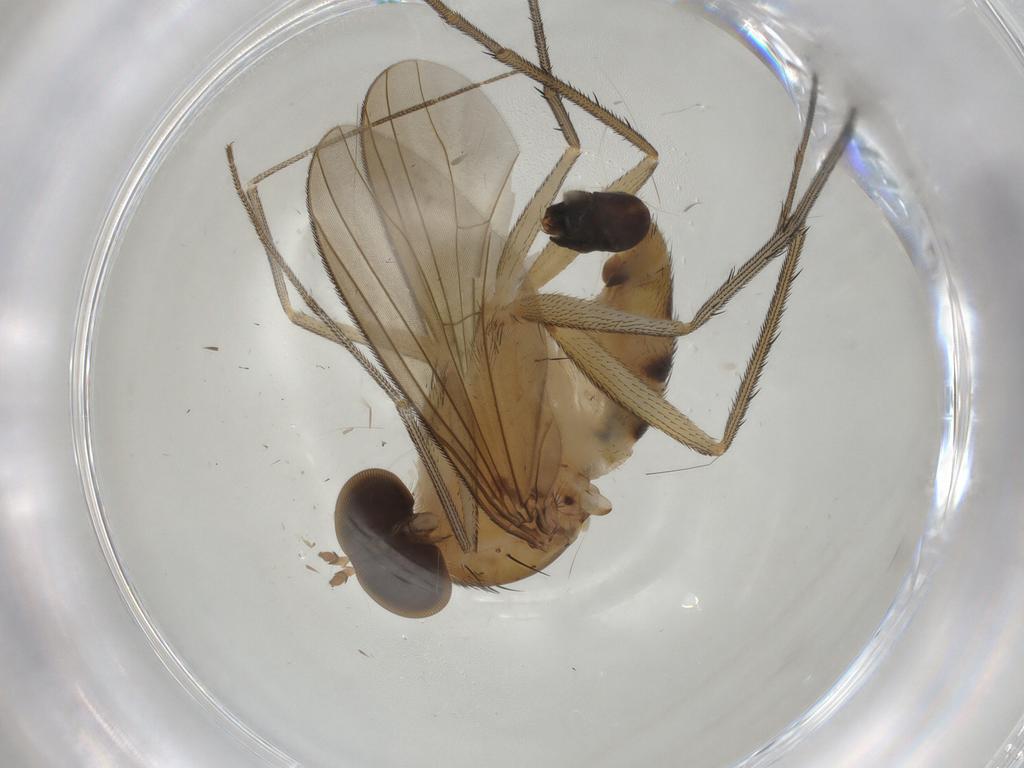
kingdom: Animalia
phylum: Arthropoda
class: Insecta
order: Diptera
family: Dolichopodidae
